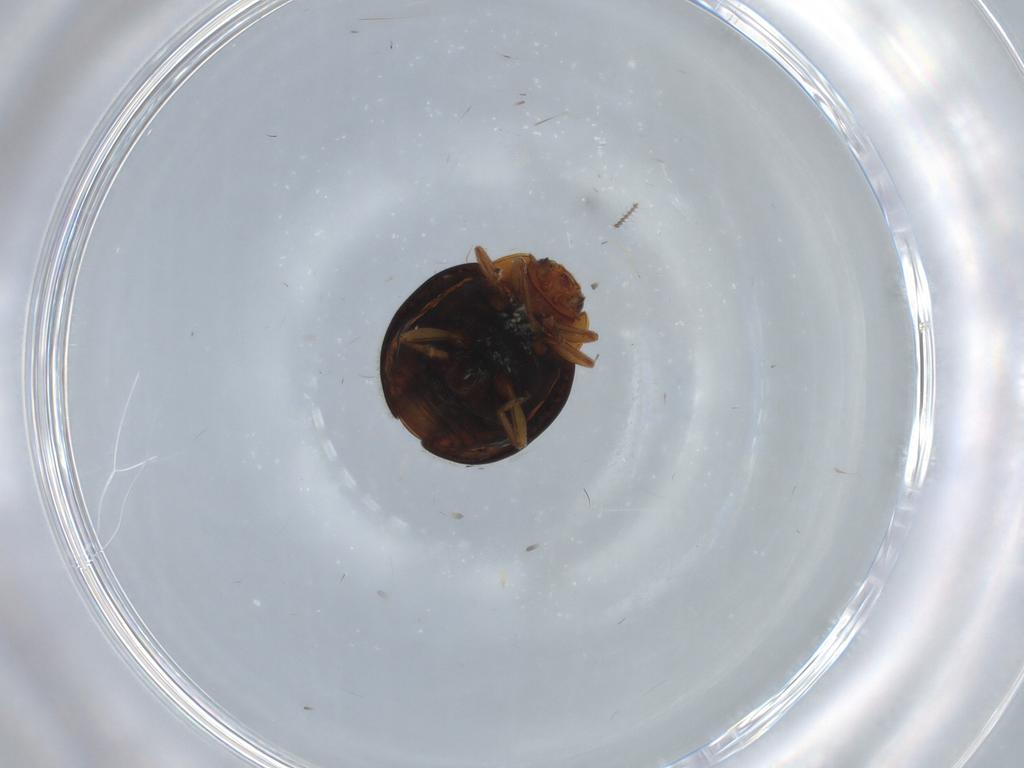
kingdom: Animalia
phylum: Arthropoda
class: Insecta
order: Coleoptera
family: Coccinellidae
